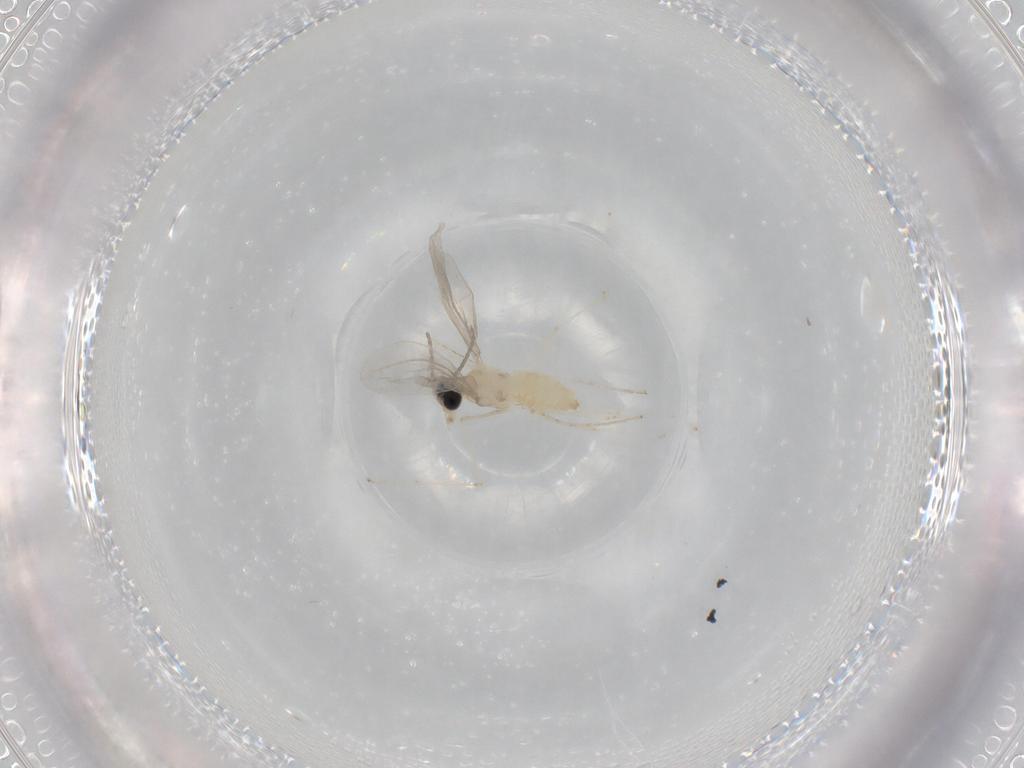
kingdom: Animalia
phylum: Arthropoda
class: Insecta
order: Diptera
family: Cecidomyiidae
